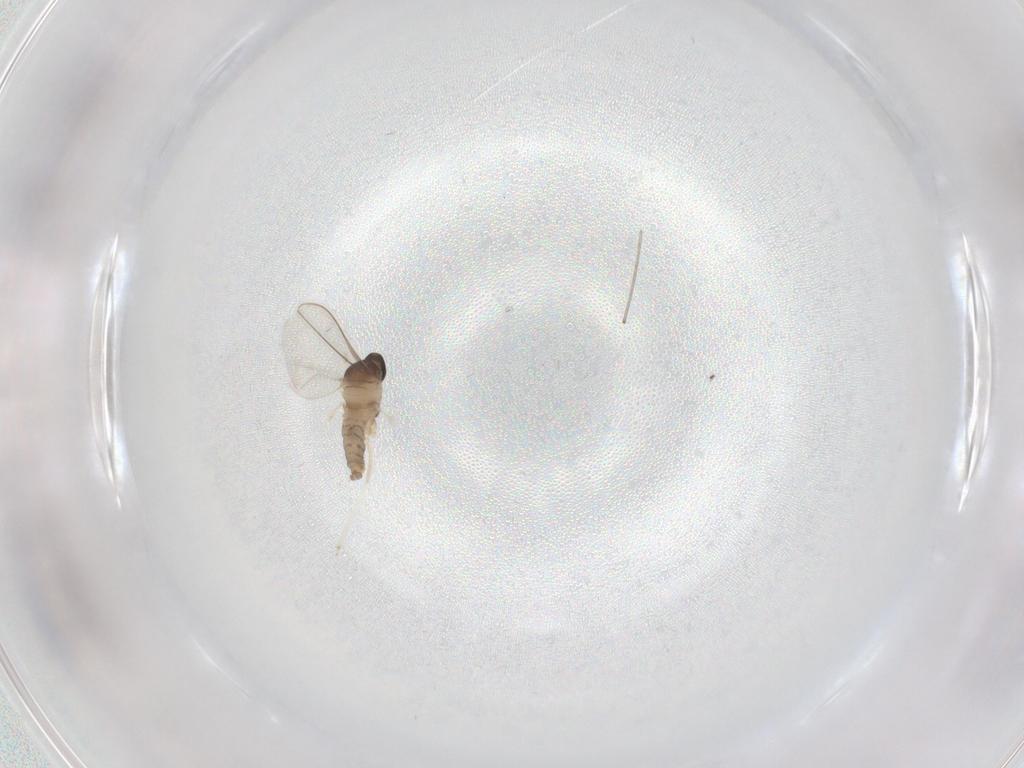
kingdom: Animalia
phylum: Arthropoda
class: Insecta
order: Diptera
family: Cecidomyiidae
